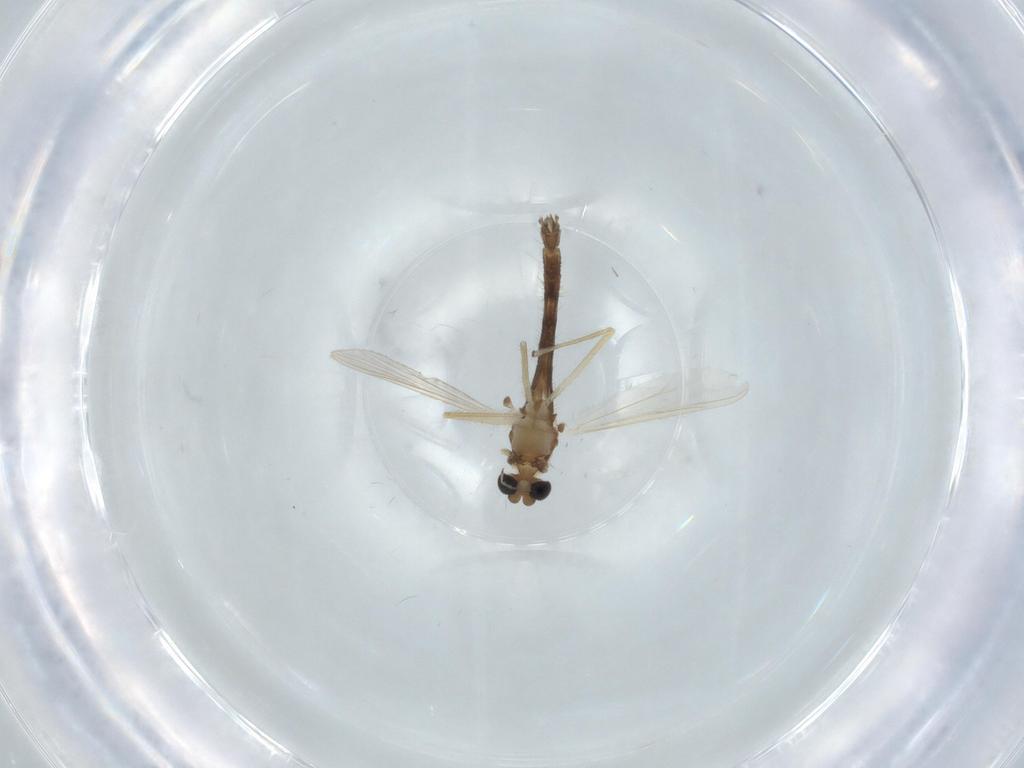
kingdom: Animalia
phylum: Arthropoda
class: Insecta
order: Diptera
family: Chironomidae
